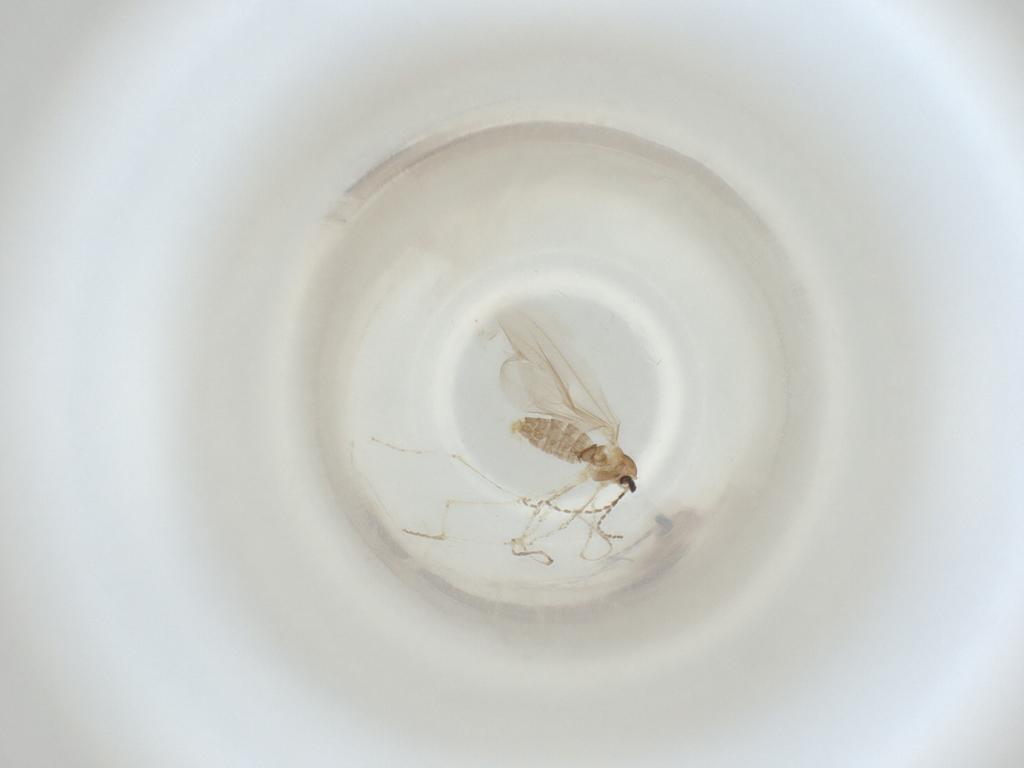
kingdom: Animalia
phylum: Arthropoda
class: Insecta
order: Diptera
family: Cecidomyiidae
